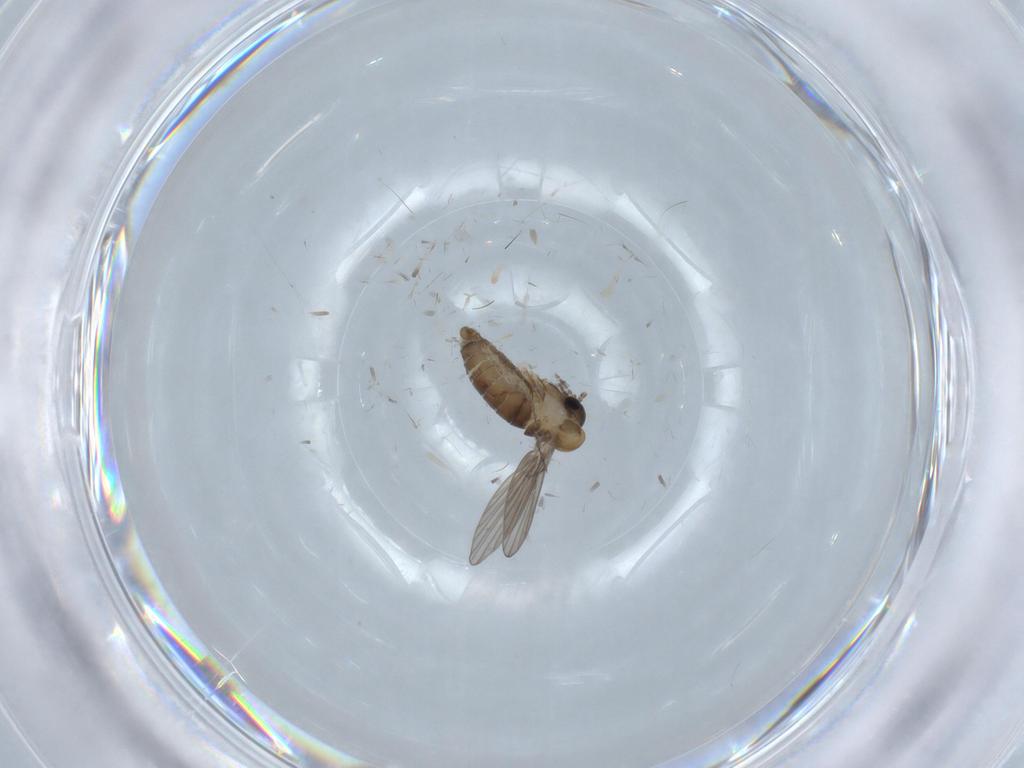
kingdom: Animalia
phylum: Arthropoda
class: Insecta
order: Diptera
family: Psychodidae
